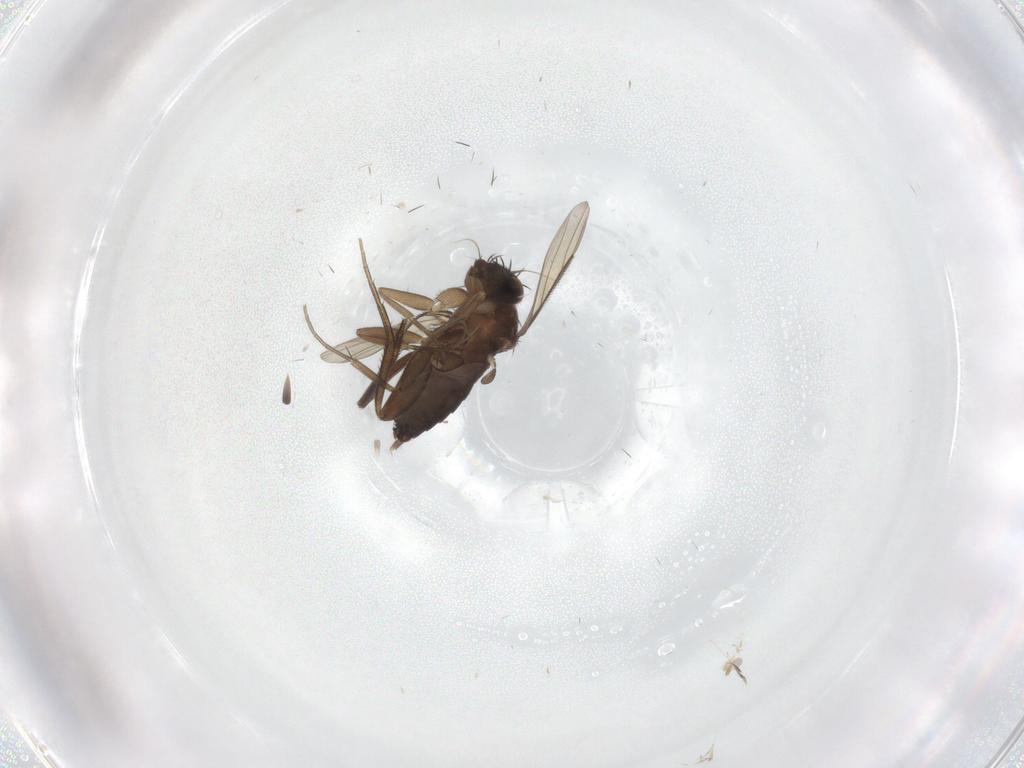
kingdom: Animalia
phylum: Arthropoda
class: Insecta
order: Diptera
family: Phoridae
